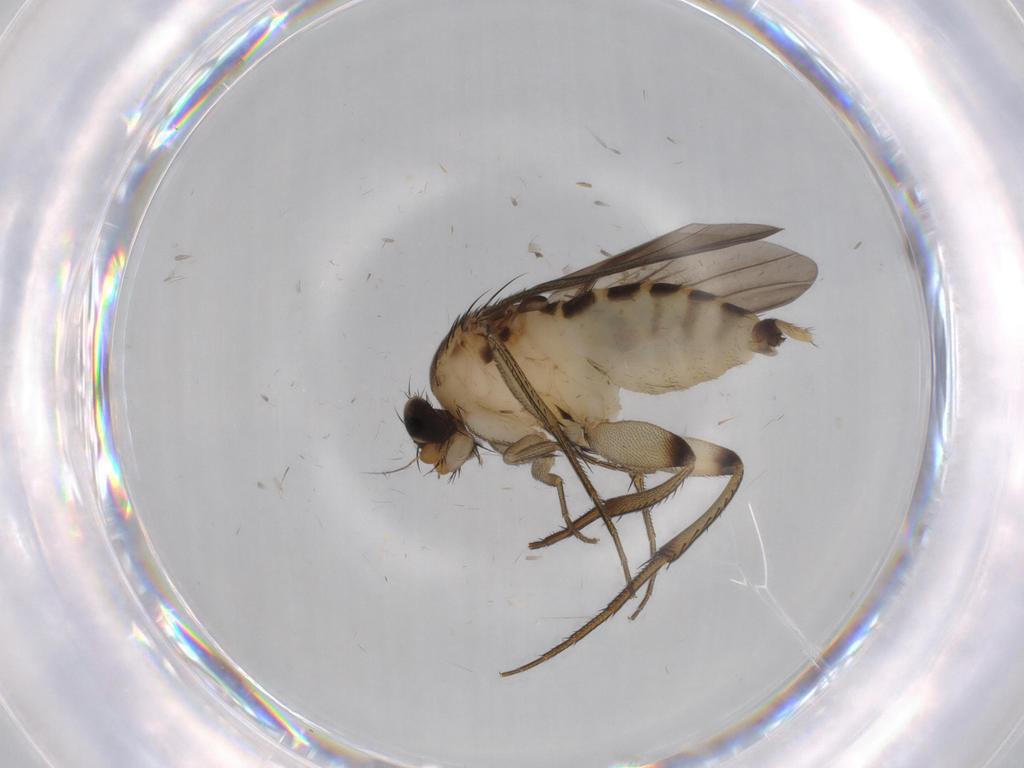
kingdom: Animalia
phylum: Arthropoda
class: Insecta
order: Diptera
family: Phoridae
